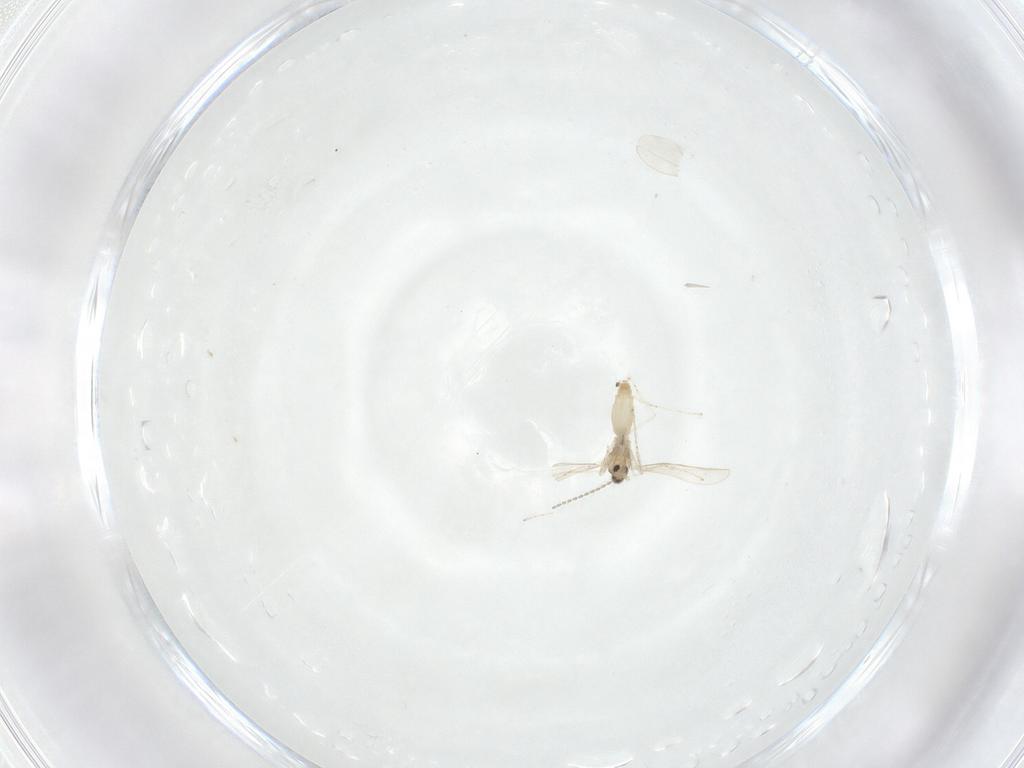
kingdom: Animalia
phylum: Arthropoda
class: Insecta
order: Diptera
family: Cecidomyiidae
